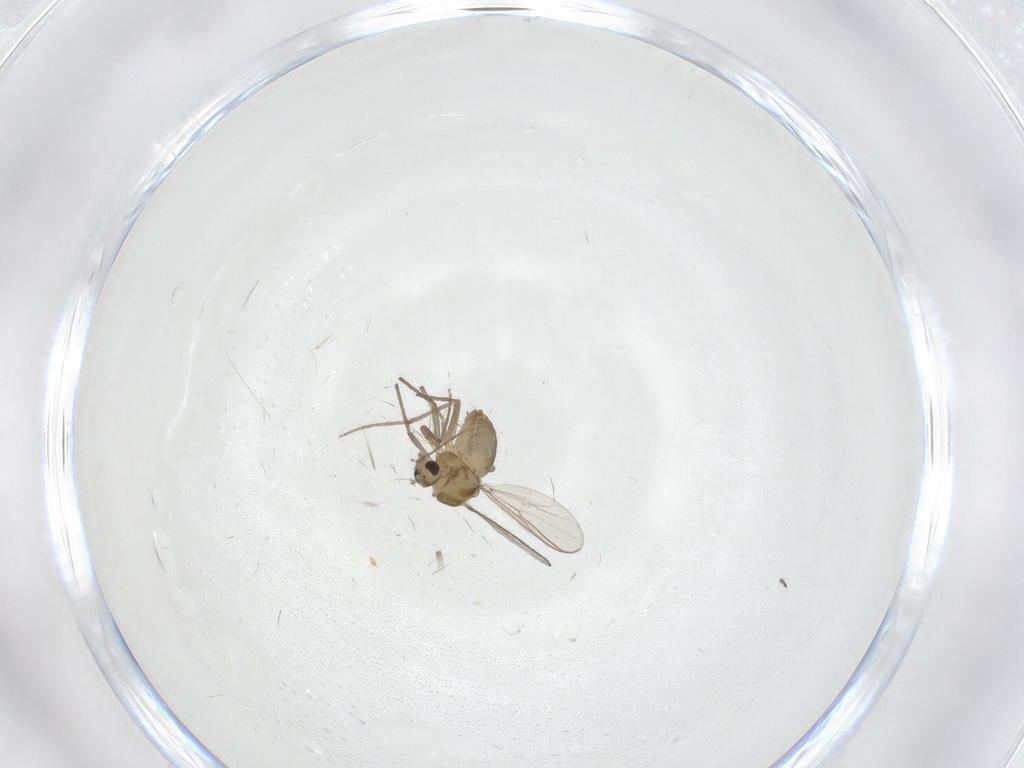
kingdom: Animalia
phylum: Arthropoda
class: Insecta
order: Diptera
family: Limoniidae
